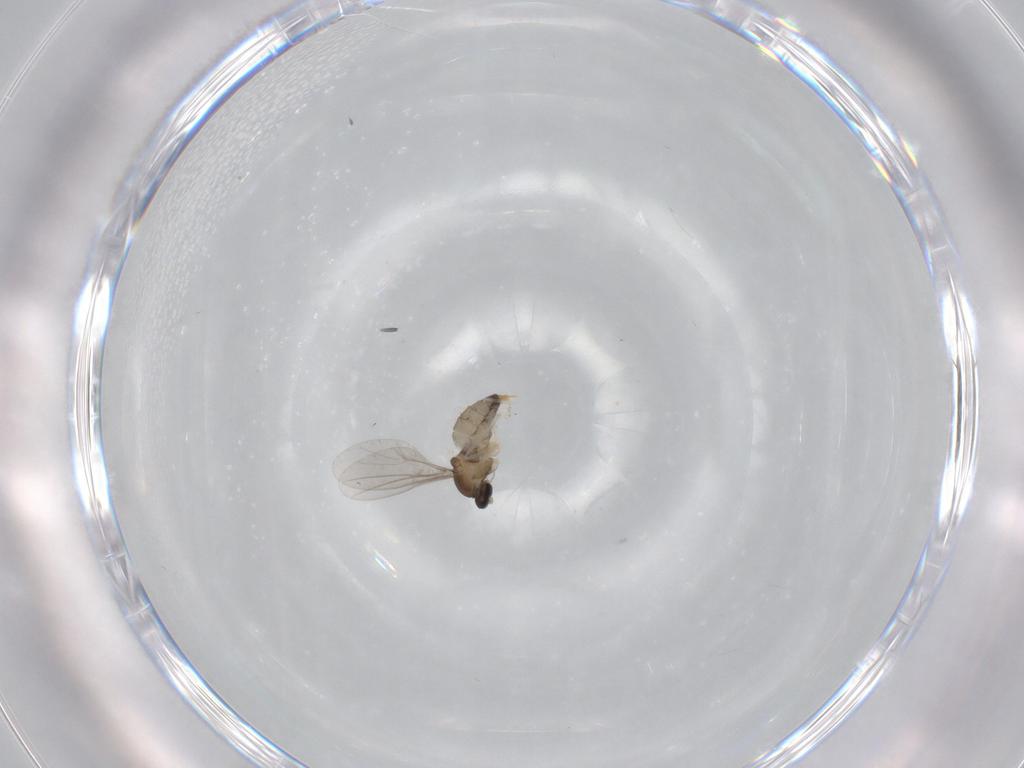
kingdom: Animalia
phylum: Arthropoda
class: Insecta
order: Diptera
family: Cecidomyiidae
